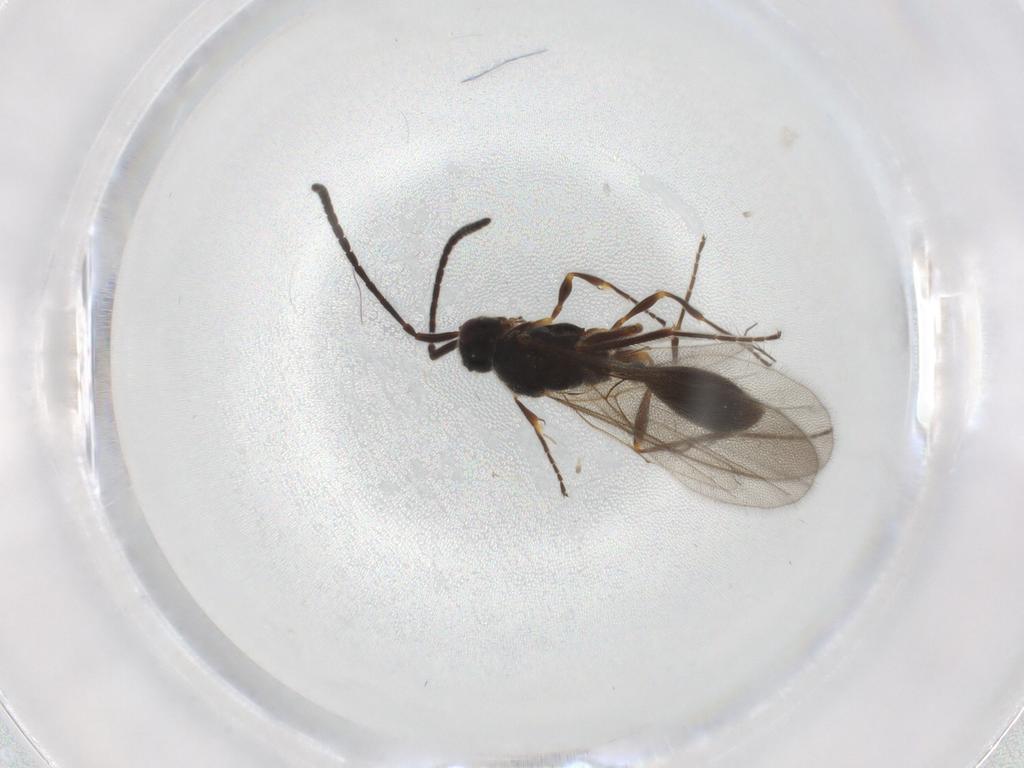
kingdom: Animalia
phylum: Arthropoda
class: Insecta
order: Hymenoptera
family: Diapriidae
